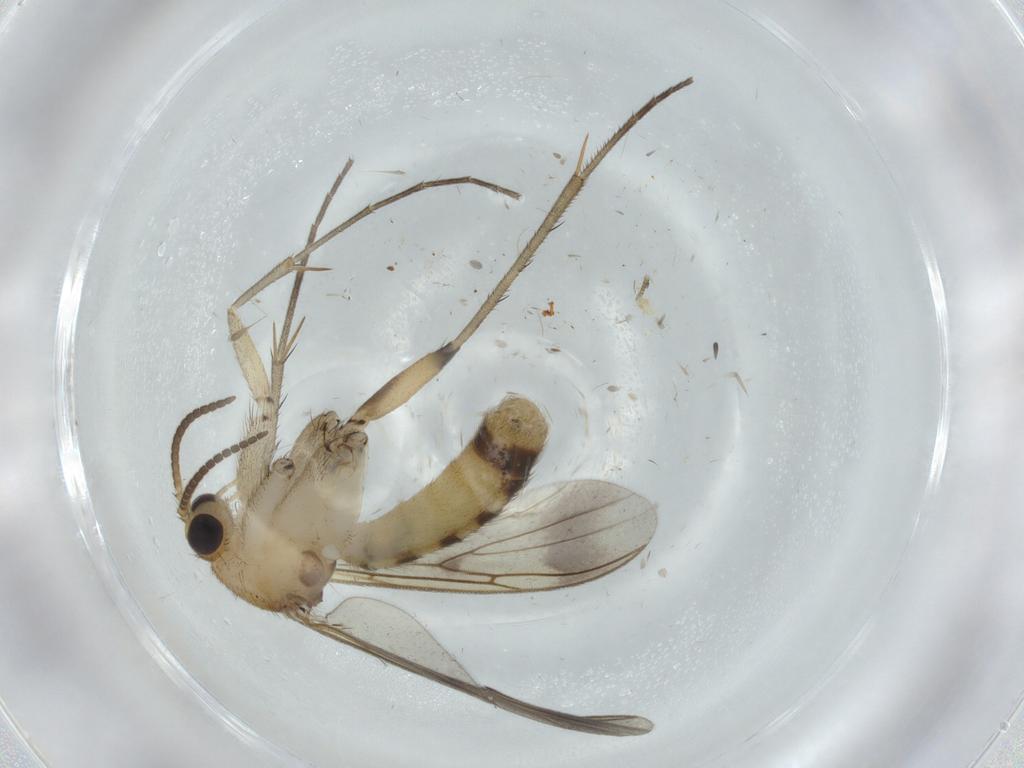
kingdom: Animalia
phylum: Arthropoda
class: Insecta
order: Diptera
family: Mycetophilidae
